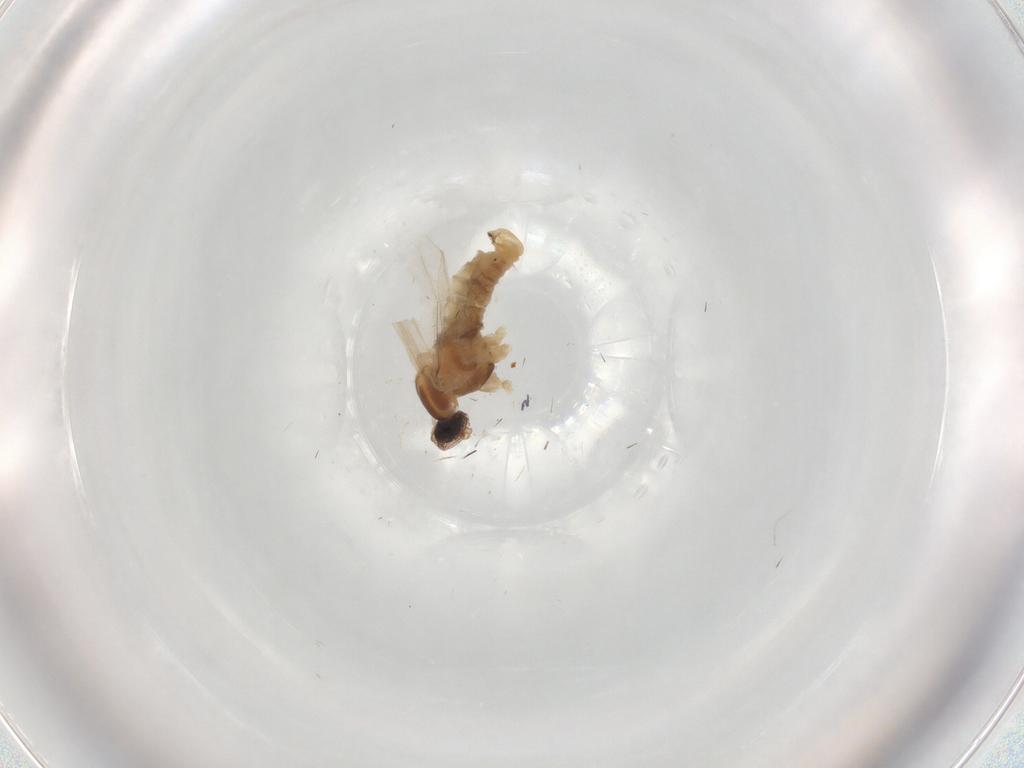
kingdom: Animalia
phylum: Arthropoda
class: Insecta
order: Diptera
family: Cecidomyiidae
